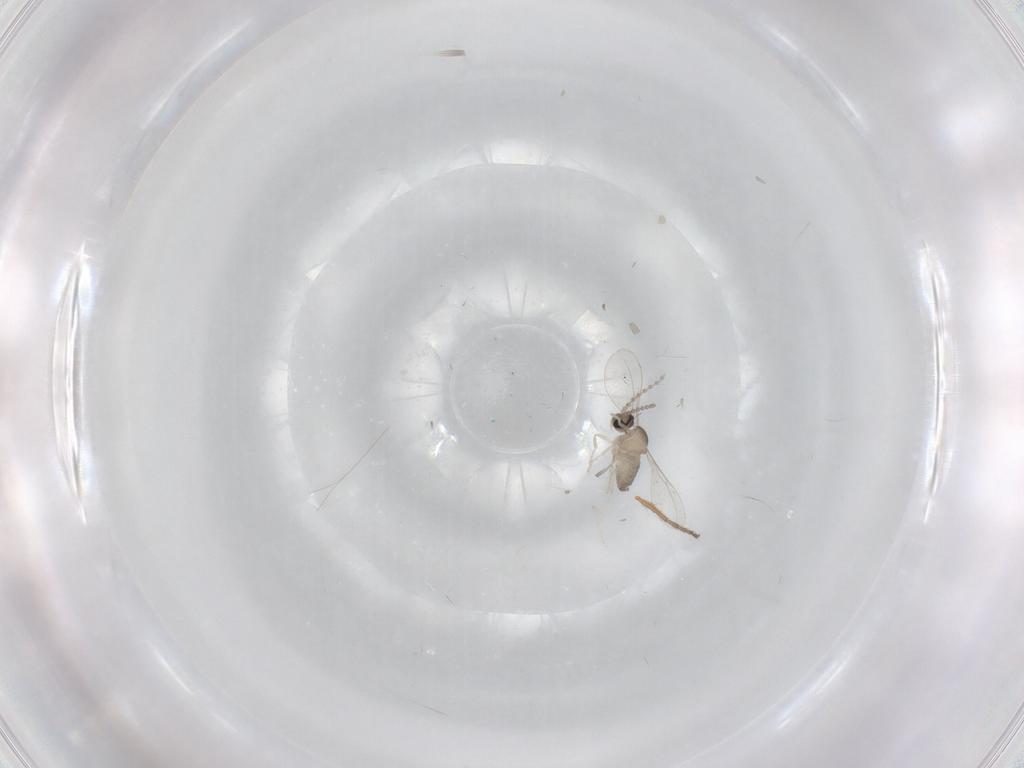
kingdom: Animalia
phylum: Arthropoda
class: Insecta
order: Diptera
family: Cecidomyiidae
